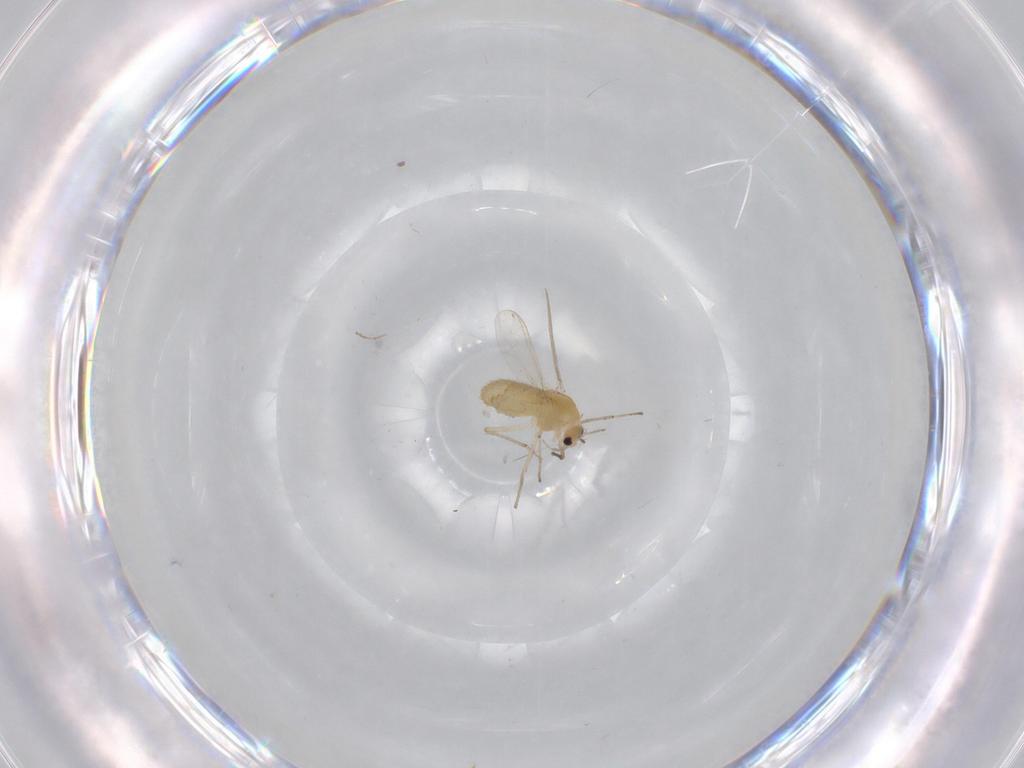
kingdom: Animalia
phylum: Arthropoda
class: Insecta
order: Diptera
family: Chironomidae
